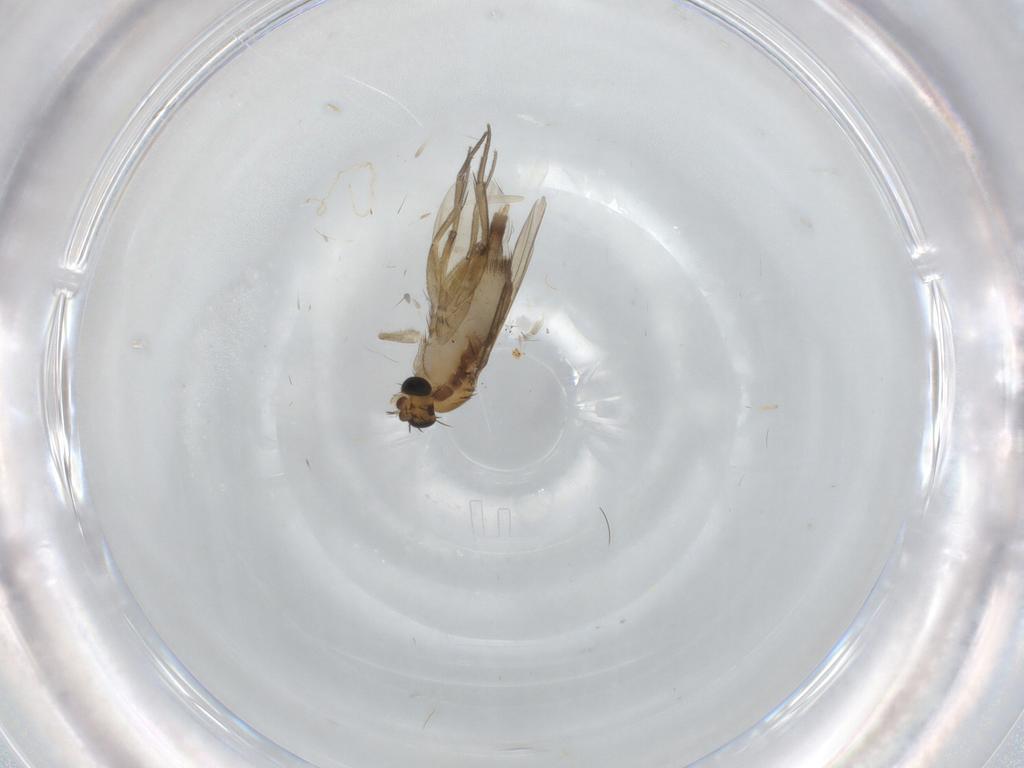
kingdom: Animalia
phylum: Arthropoda
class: Insecta
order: Diptera
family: Phoridae
